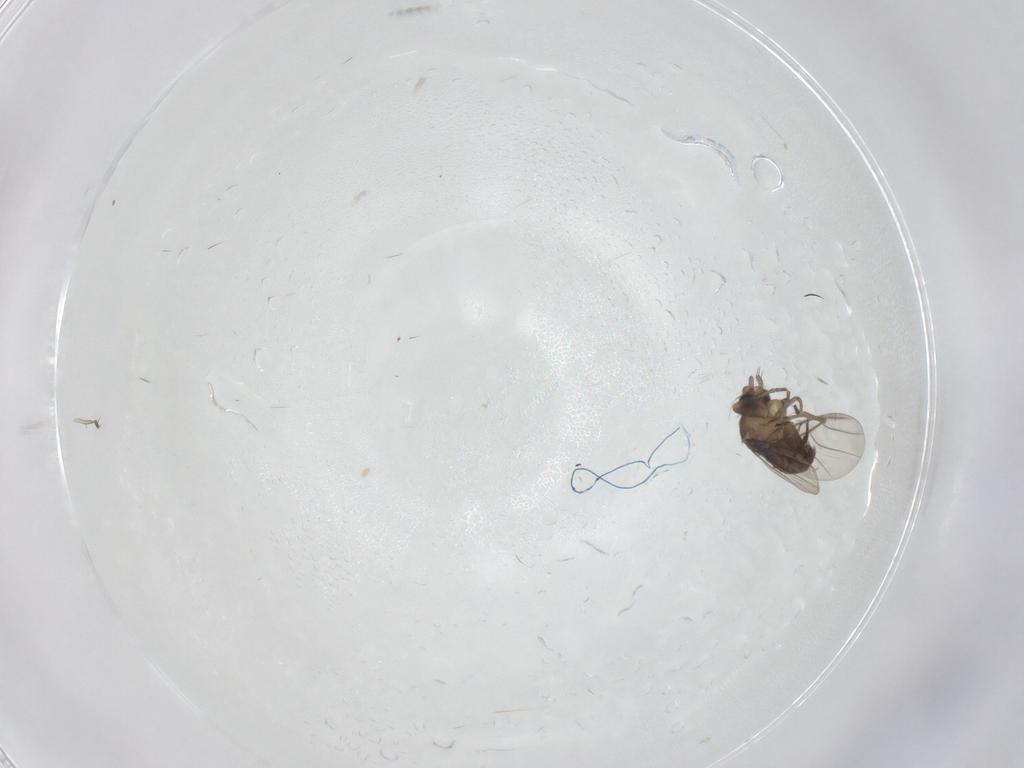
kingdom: Animalia
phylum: Arthropoda
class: Insecta
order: Diptera
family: Phoridae
